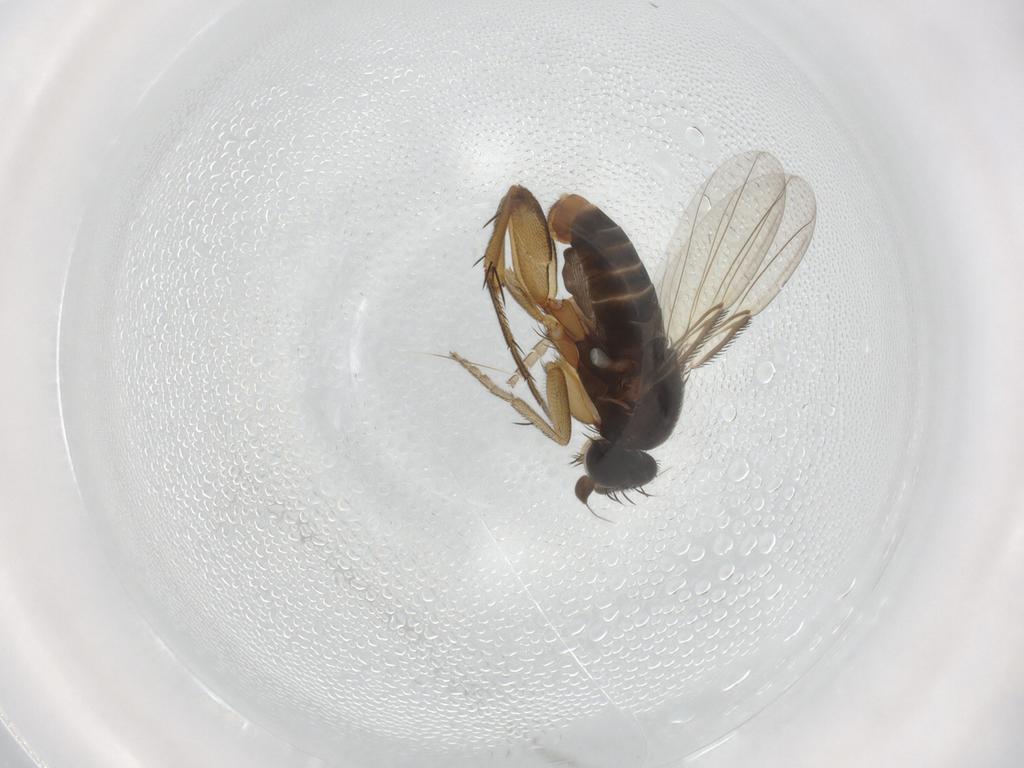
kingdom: Animalia
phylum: Arthropoda
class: Insecta
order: Diptera
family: Phoridae
